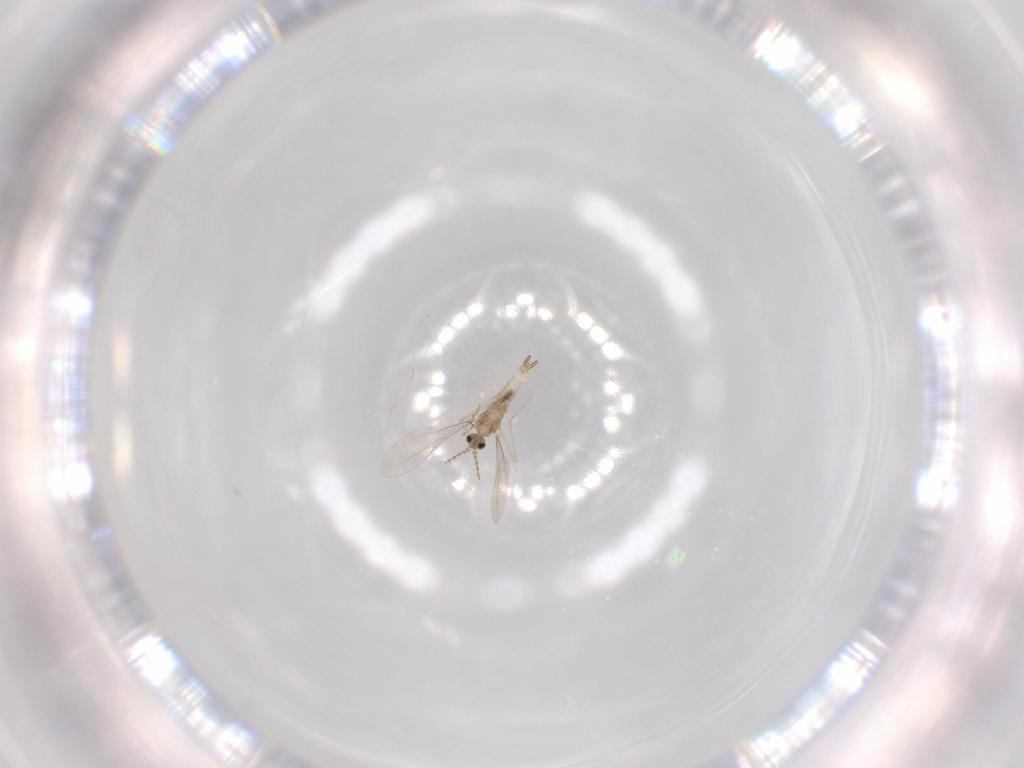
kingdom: Animalia
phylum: Arthropoda
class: Insecta
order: Diptera
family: Cecidomyiidae
